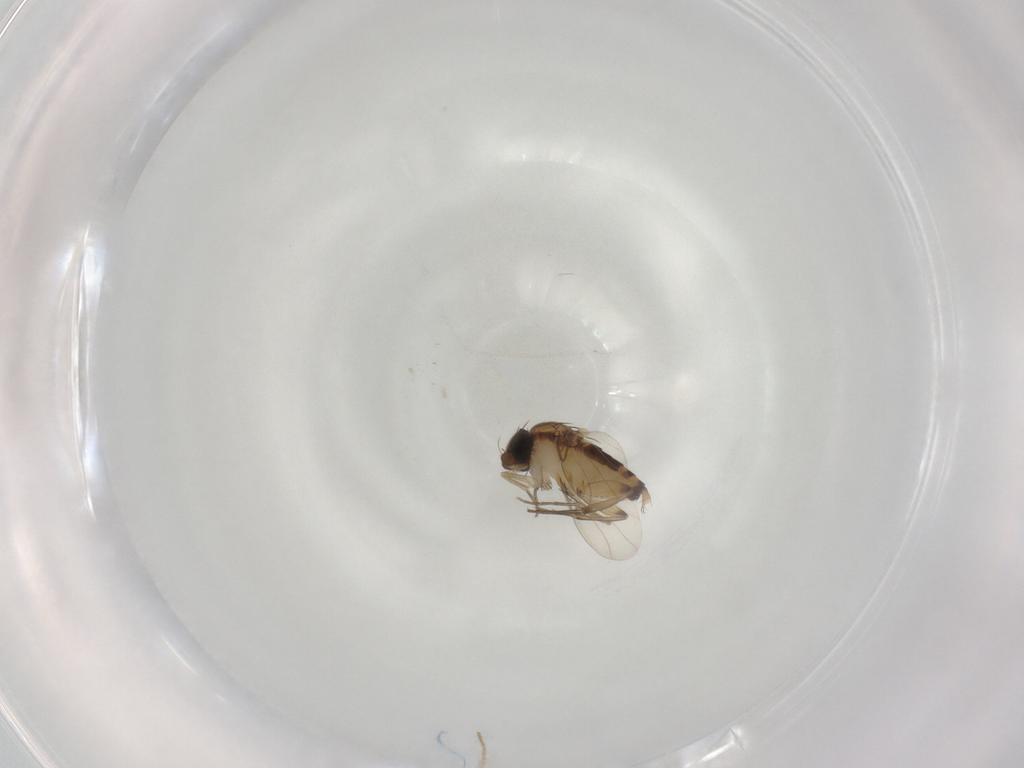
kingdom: Animalia
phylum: Arthropoda
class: Insecta
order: Diptera
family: Phoridae
